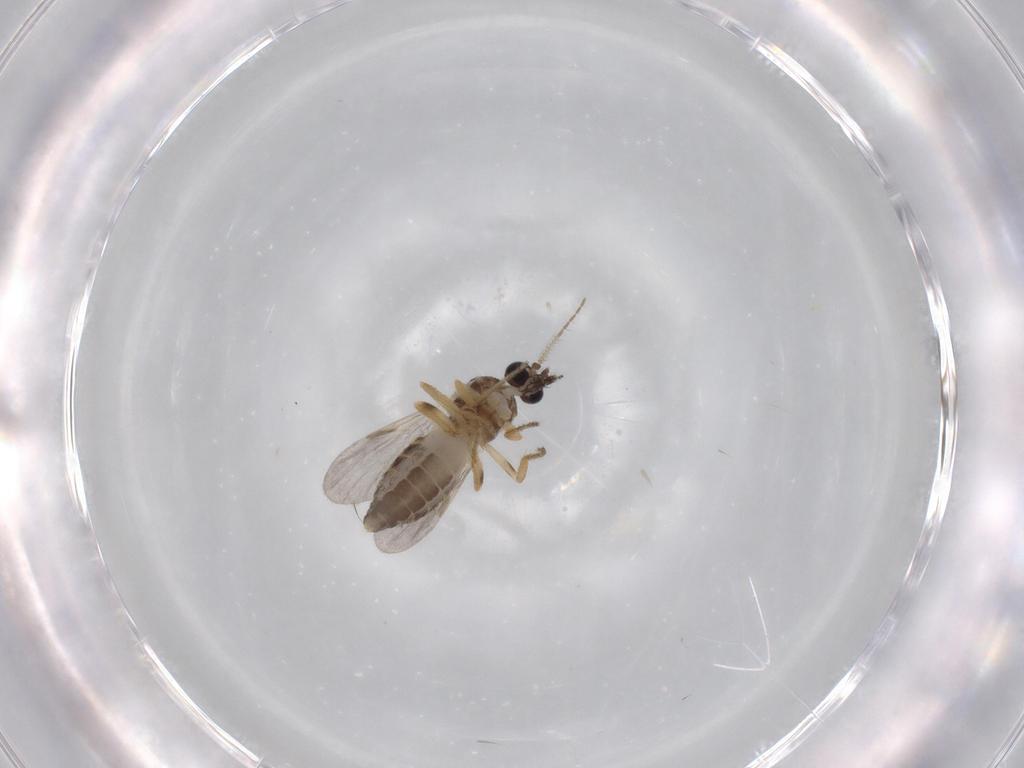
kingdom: Animalia
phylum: Arthropoda
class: Insecta
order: Diptera
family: Ceratopogonidae
